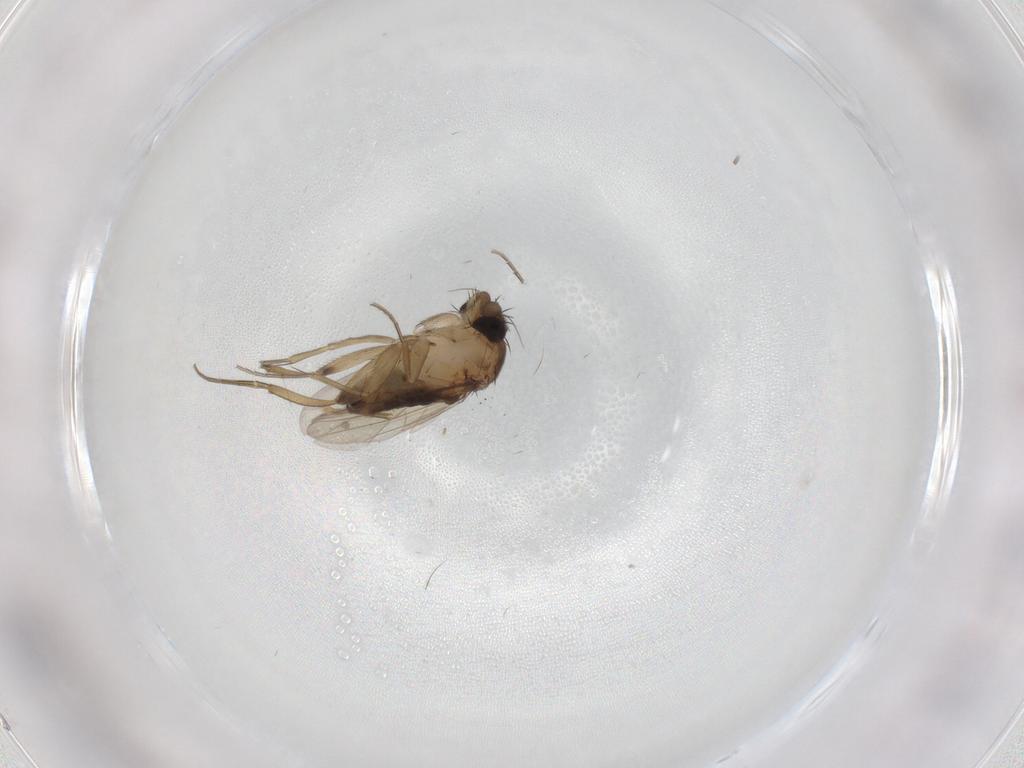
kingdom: Animalia
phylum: Arthropoda
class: Insecta
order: Diptera
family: Phoridae
